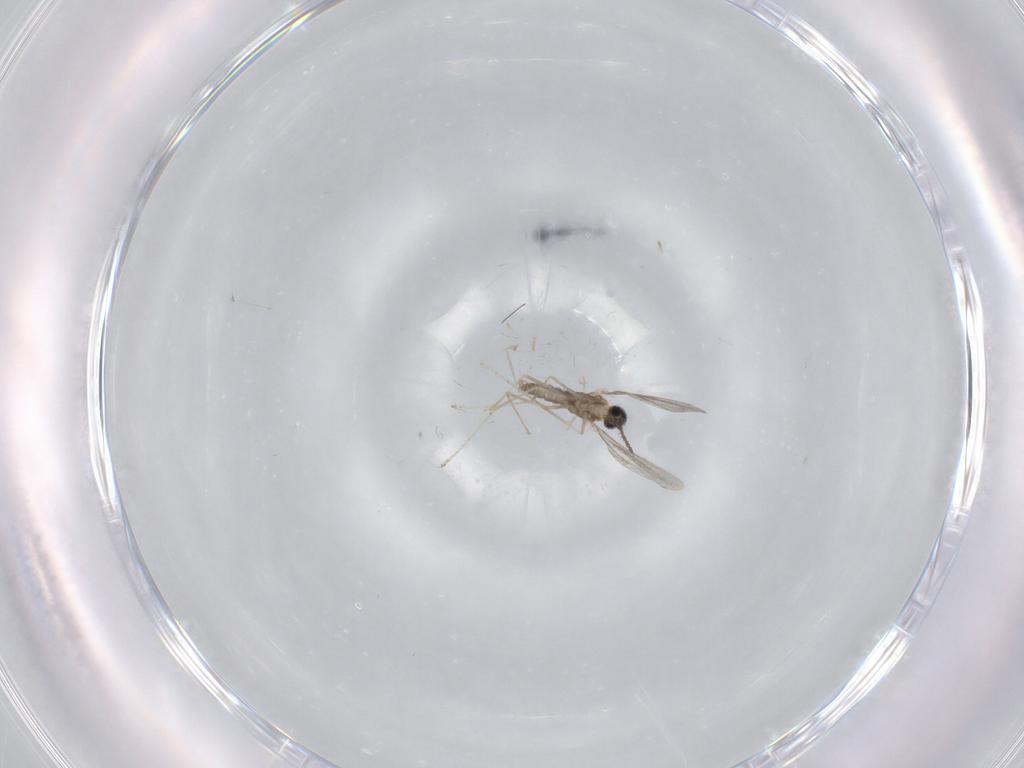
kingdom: Animalia
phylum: Arthropoda
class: Insecta
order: Diptera
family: Cecidomyiidae
